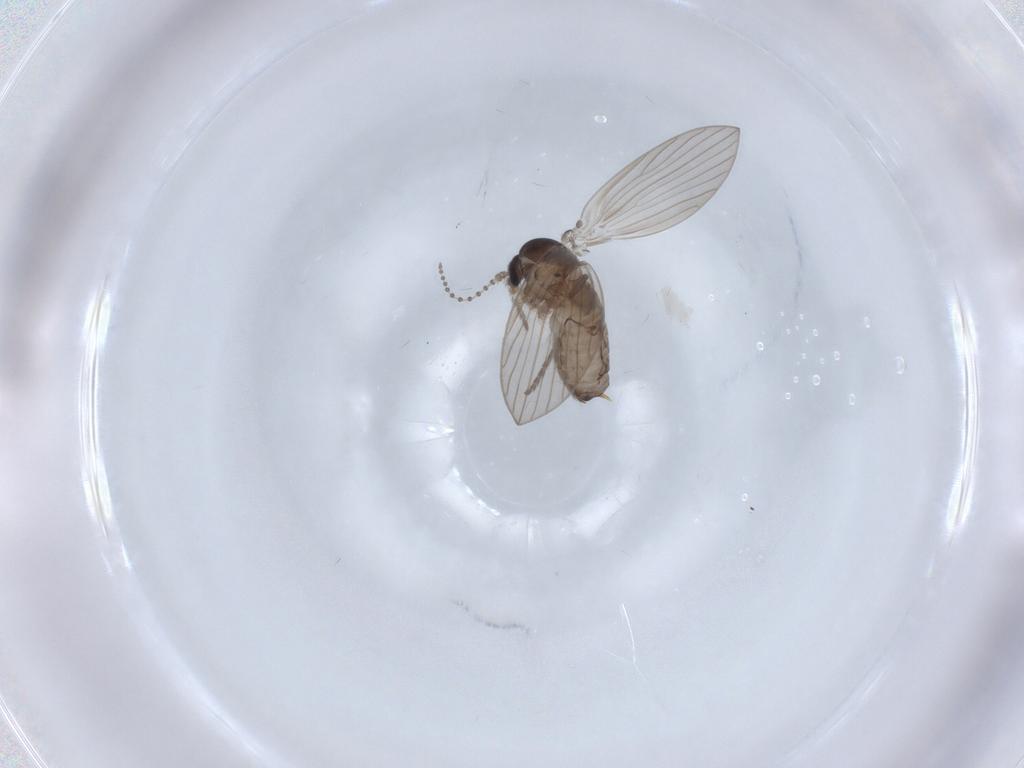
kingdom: Animalia
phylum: Arthropoda
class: Insecta
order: Diptera
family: Psychodidae
